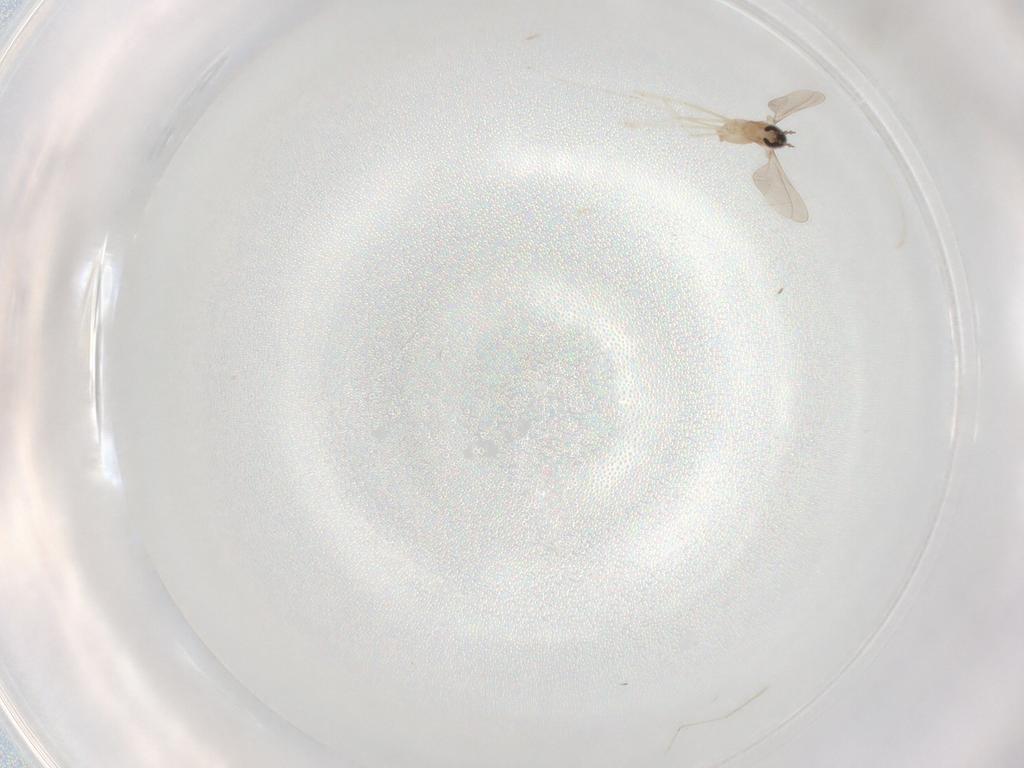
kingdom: Animalia
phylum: Arthropoda
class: Insecta
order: Diptera
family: Cecidomyiidae
